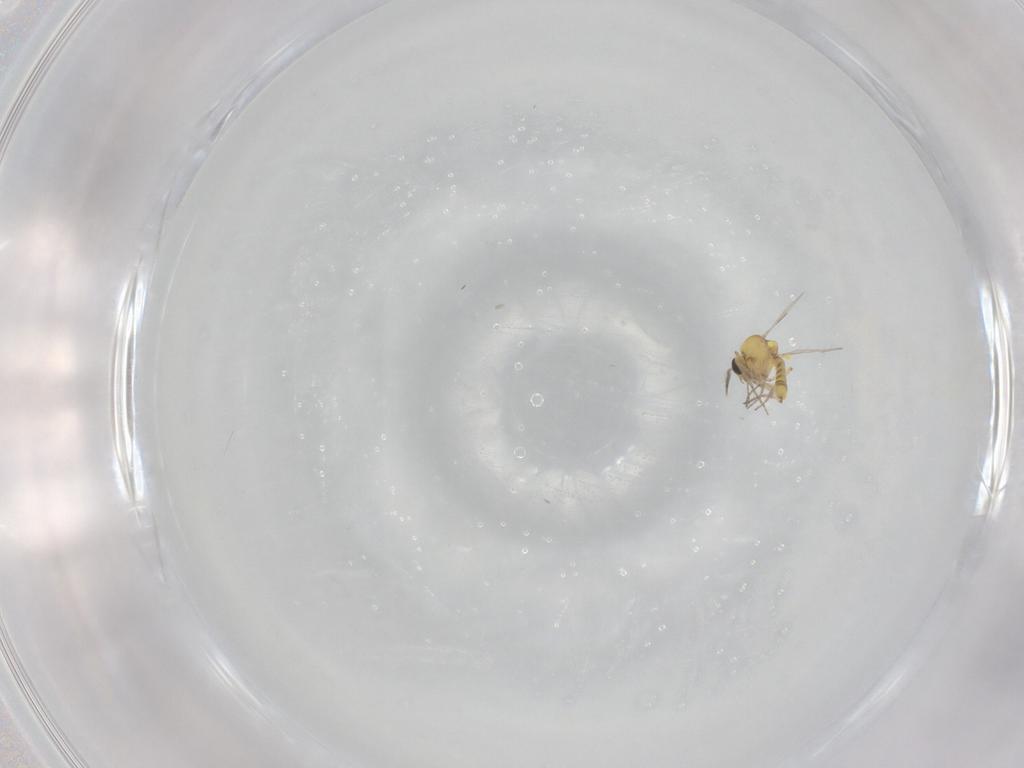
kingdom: Animalia
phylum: Arthropoda
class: Insecta
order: Diptera
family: Ceratopogonidae
